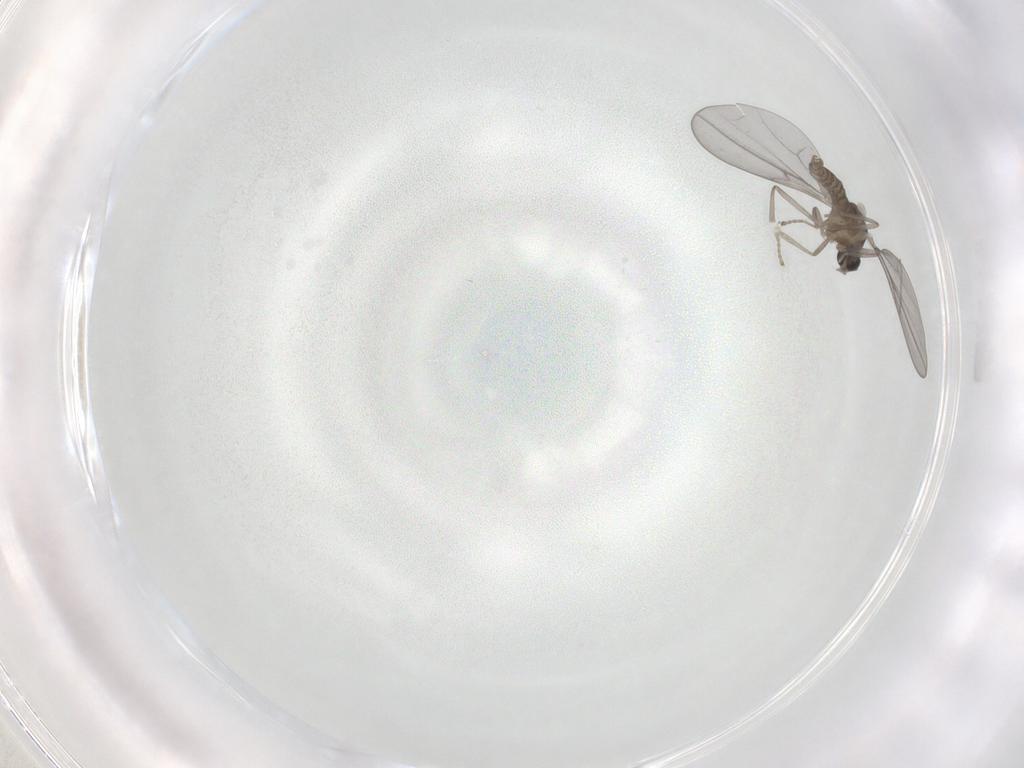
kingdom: Animalia
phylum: Arthropoda
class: Insecta
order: Diptera
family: Cecidomyiidae
